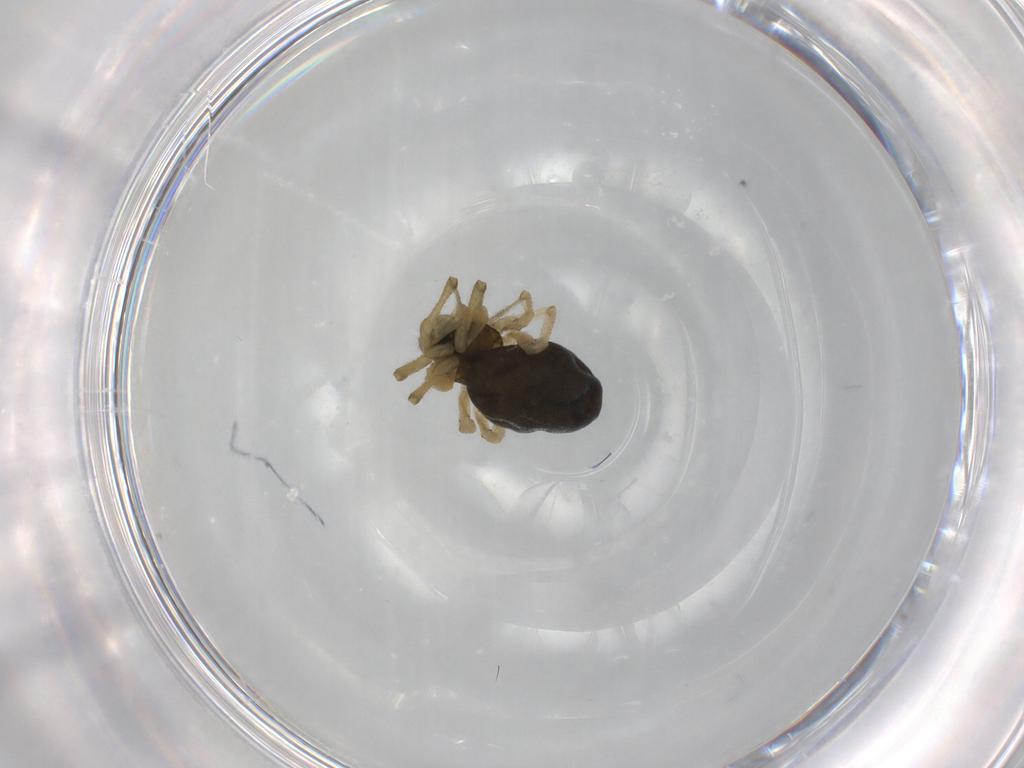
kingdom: Animalia
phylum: Arthropoda
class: Arachnida
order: Araneae
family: Linyphiidae
